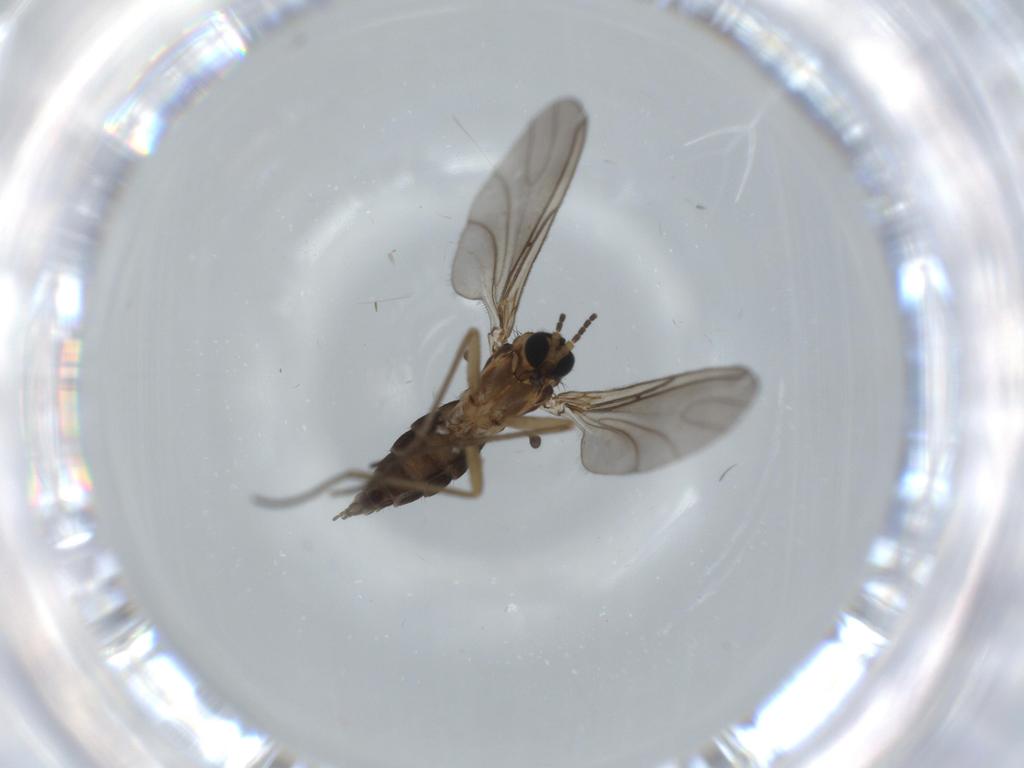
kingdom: Animalia
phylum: Arthropoda
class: Insecta
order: Diptera
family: Sciaridae
